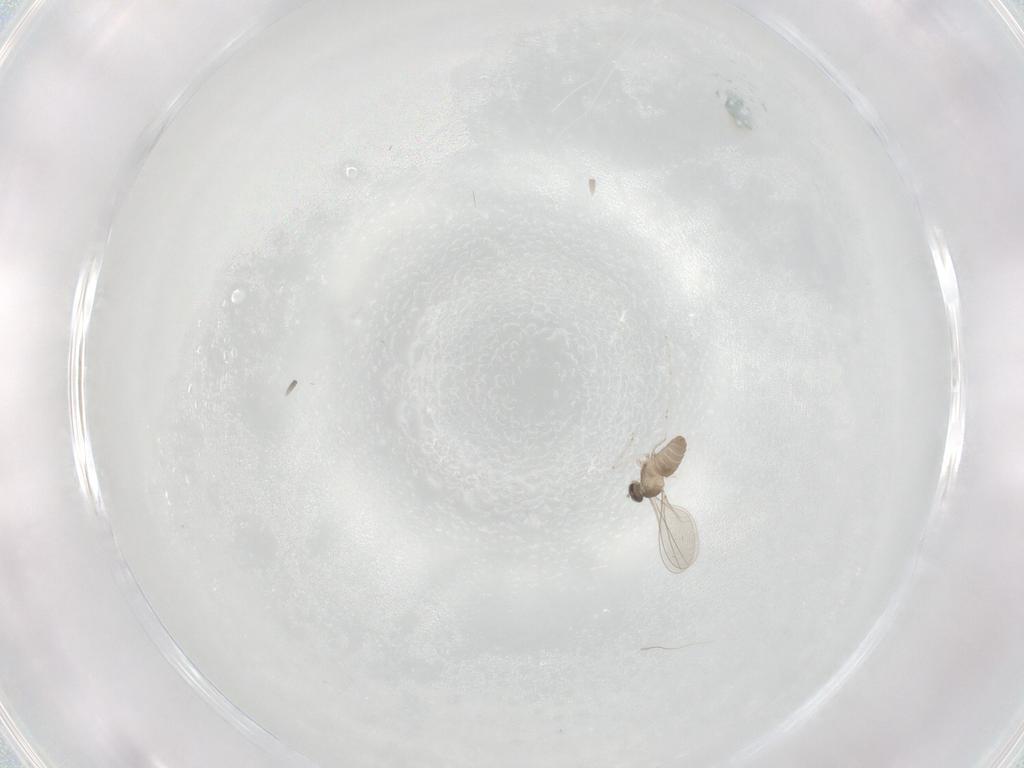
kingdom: Animalia
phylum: Arthropoda
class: Insecta
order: Diptera
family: Cecidomyiidae
